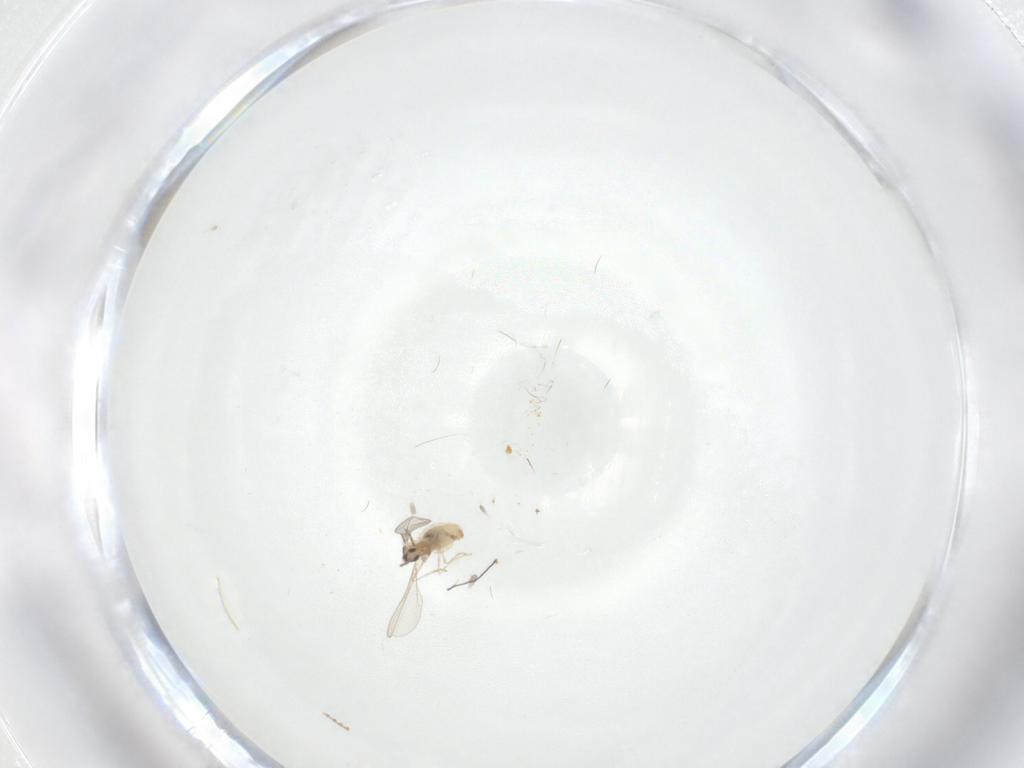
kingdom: Animalia
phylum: Arthropoda
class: Insecta
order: Diptera
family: Cecidomyiidae
